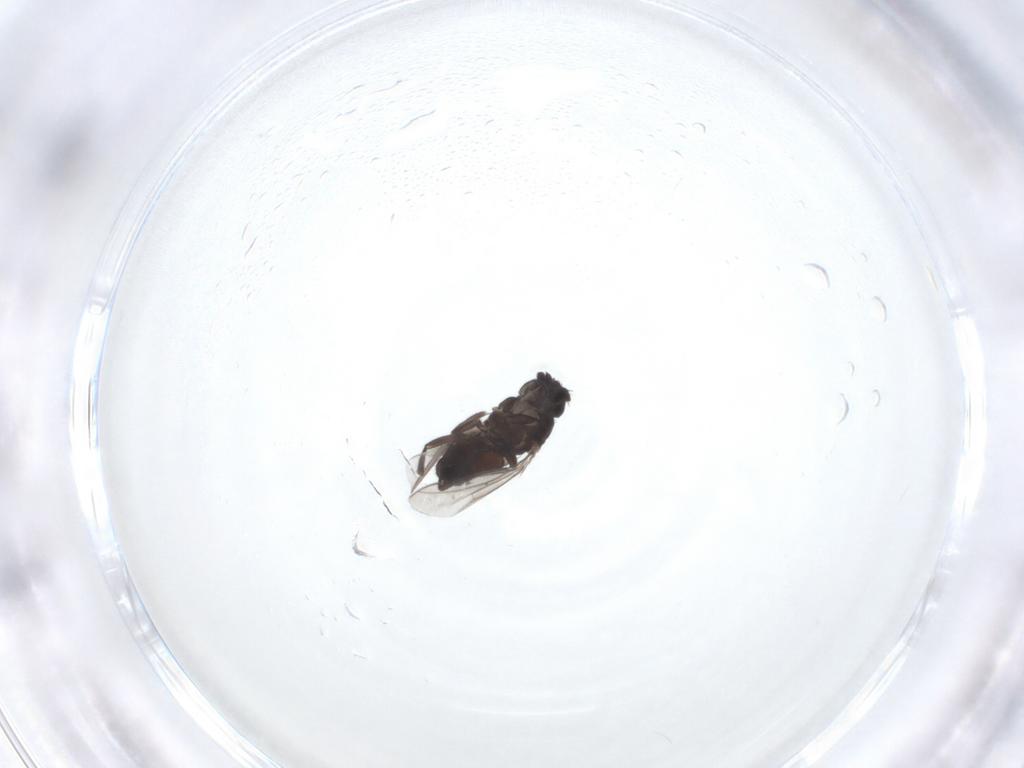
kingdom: Animalia
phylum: Arthropoda
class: Insecta
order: Diptera
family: Sphaeroceridae
